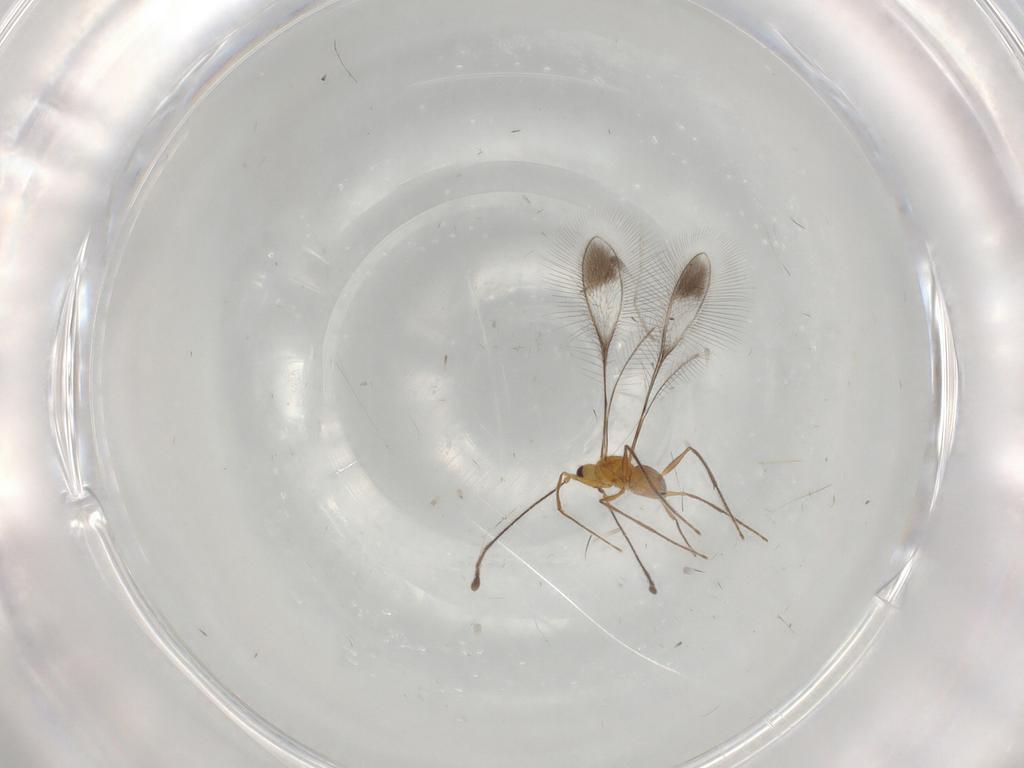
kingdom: Animalia
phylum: Arthropoda
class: Insecta
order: Hymenoptera
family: Mymaridae
